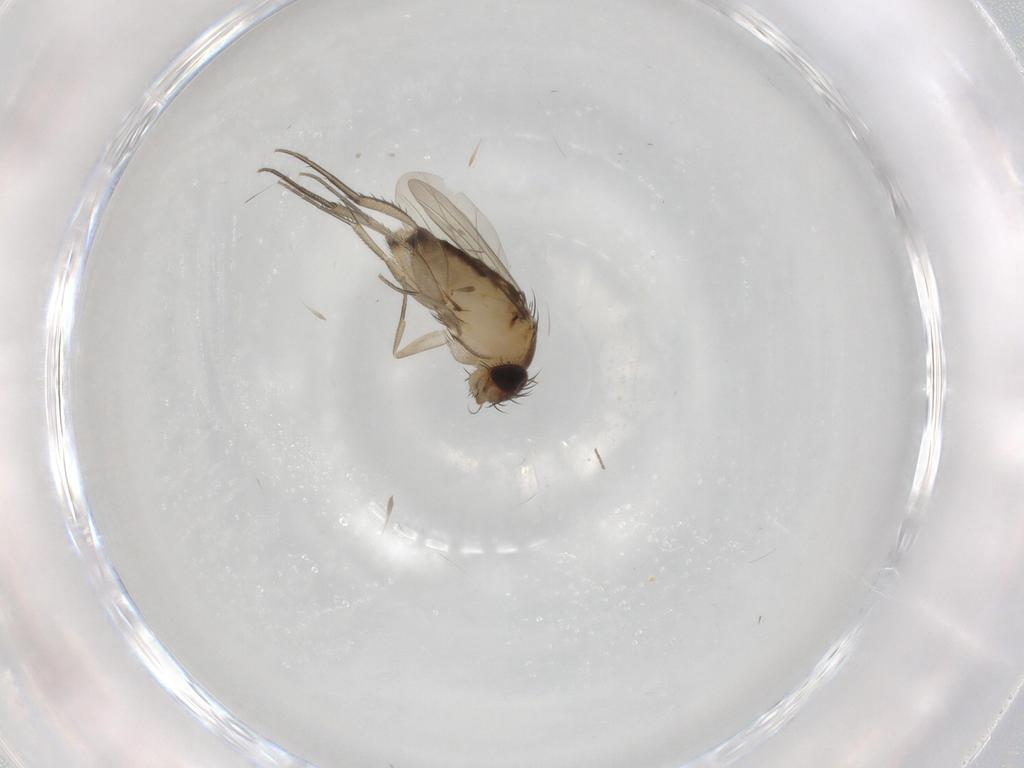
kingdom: Animalia
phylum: Arthropoda
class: Insecta
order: Diptera
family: Phoridae
